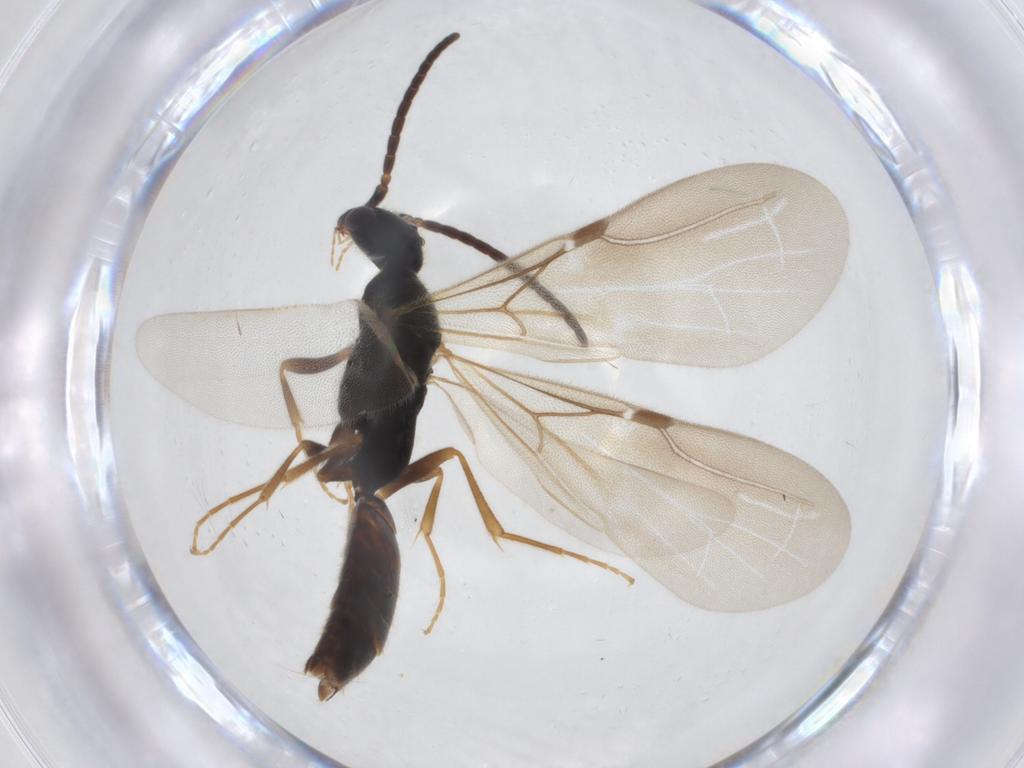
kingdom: Animalia
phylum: Arthropoda
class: Insecta
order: Hymenoptera
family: Bethylidae
